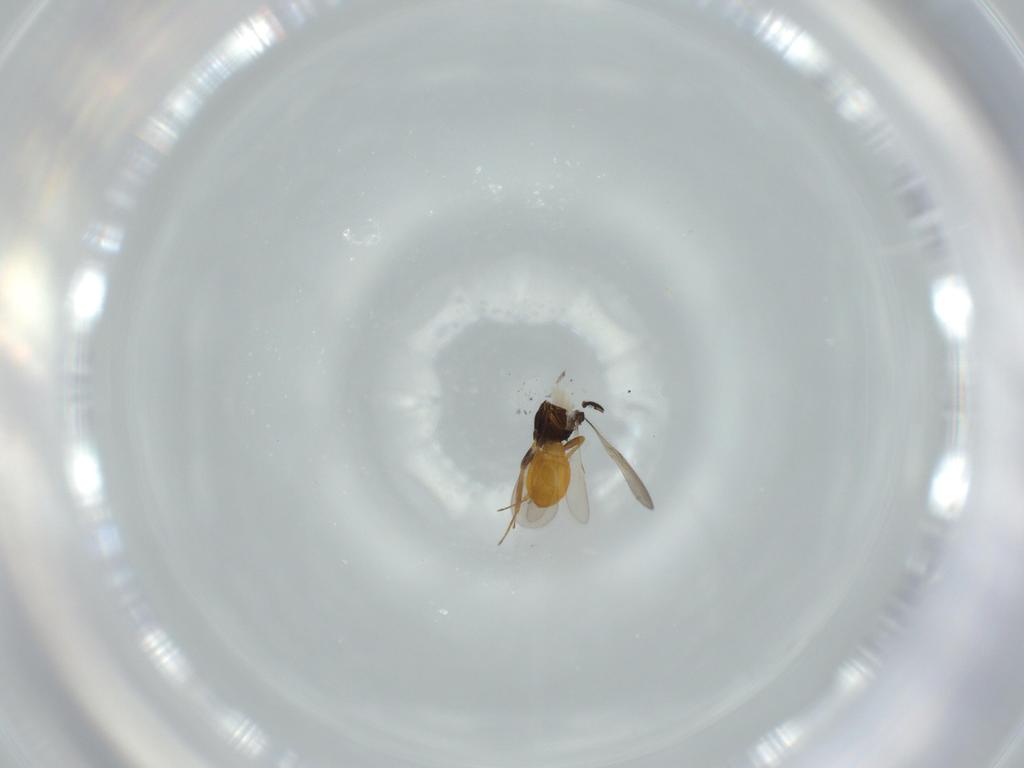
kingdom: Animalia
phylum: Arthropoda
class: Insecta
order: Hymenoptera
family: Scelionidae
